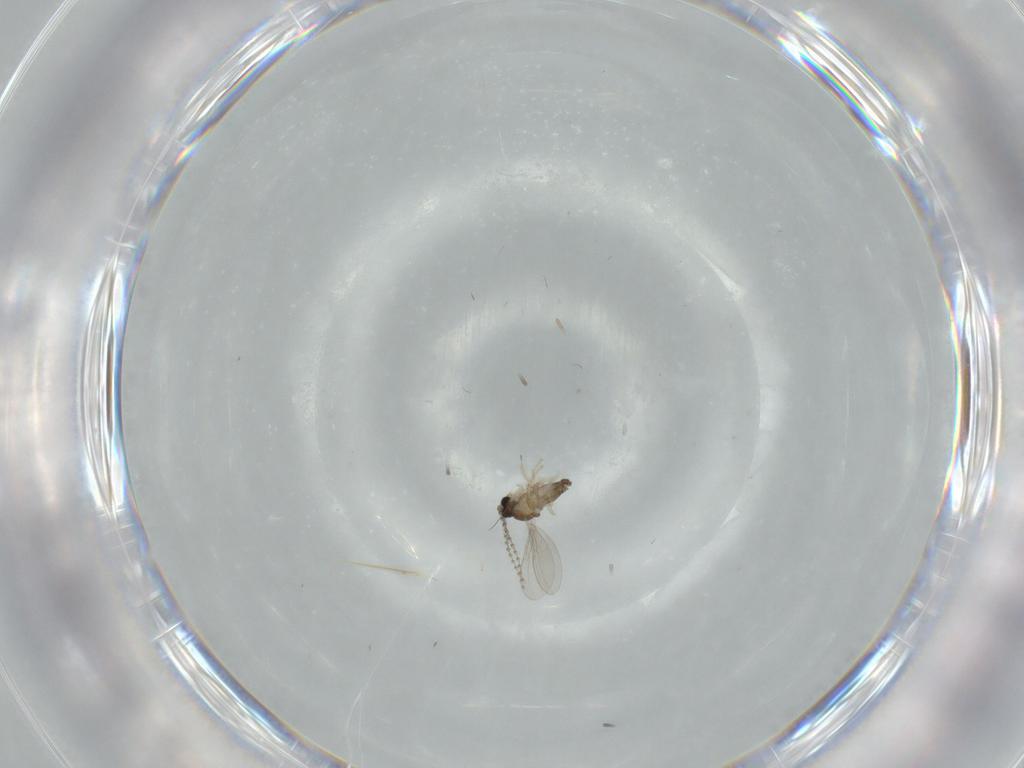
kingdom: Animalia
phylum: Arthropoda
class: Insecta
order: Diptera
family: Cecidomyiidae
